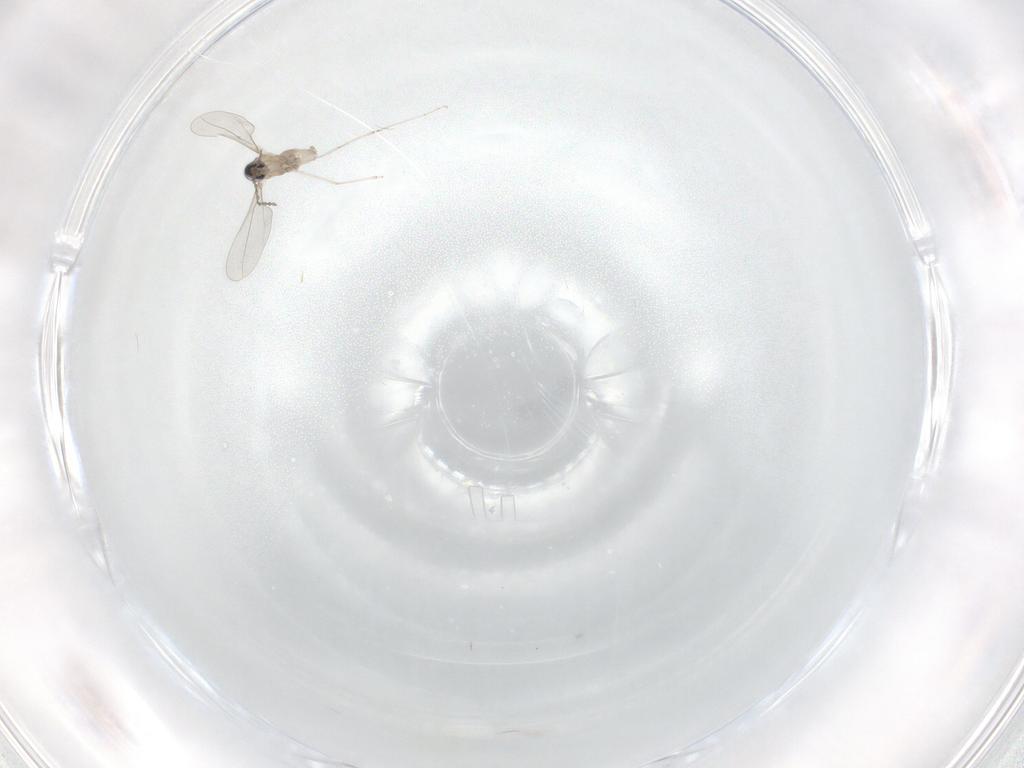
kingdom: Animalia
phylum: Arthropoda
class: Insecta
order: Diptera
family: Cecidomyiidae
